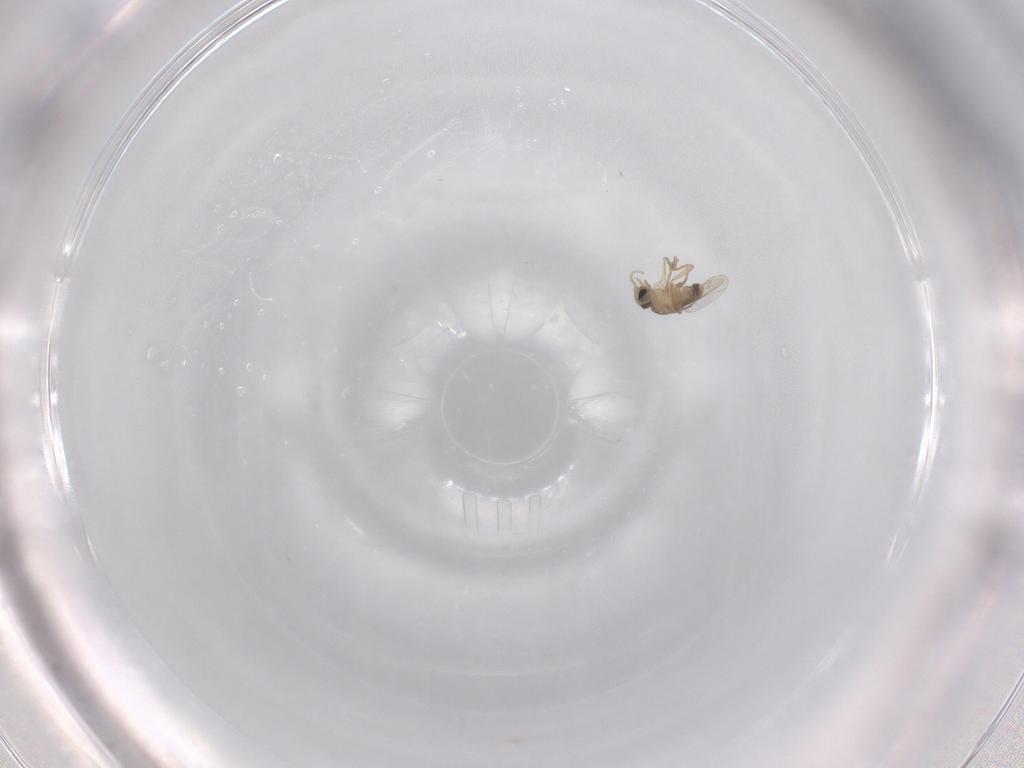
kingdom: Animalia
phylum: Arthropoda
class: Insecta
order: Diptera
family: Phoridae
